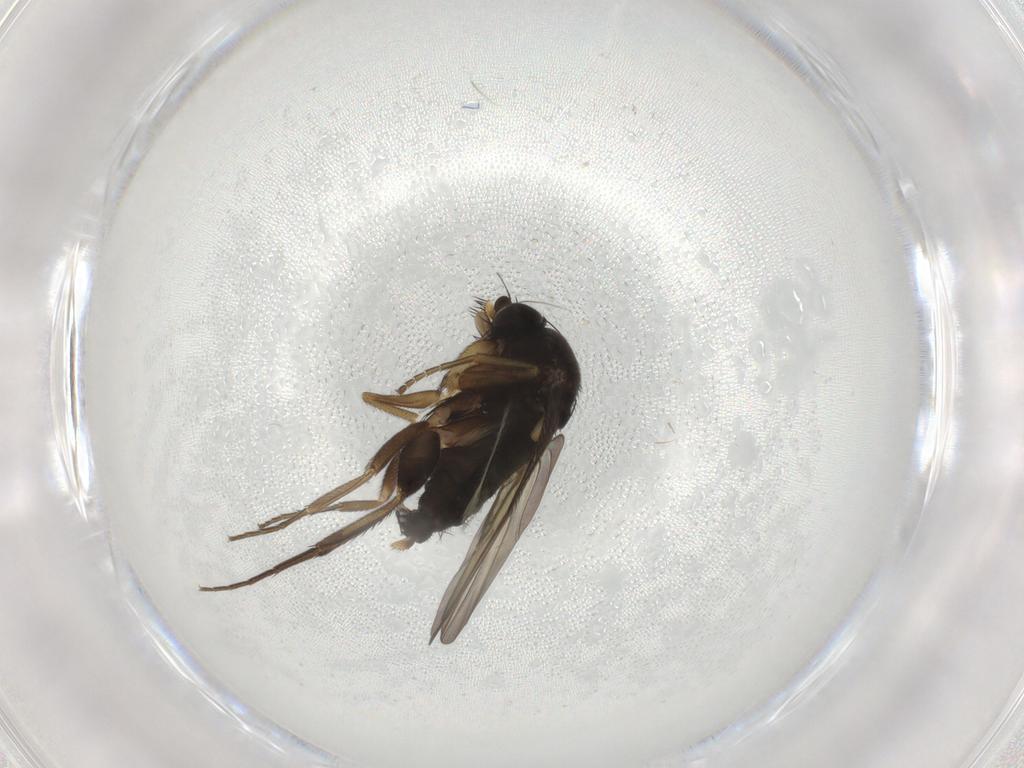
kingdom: Animalia
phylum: Arthropoda
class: Insecta
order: Diptera
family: Phoridae
